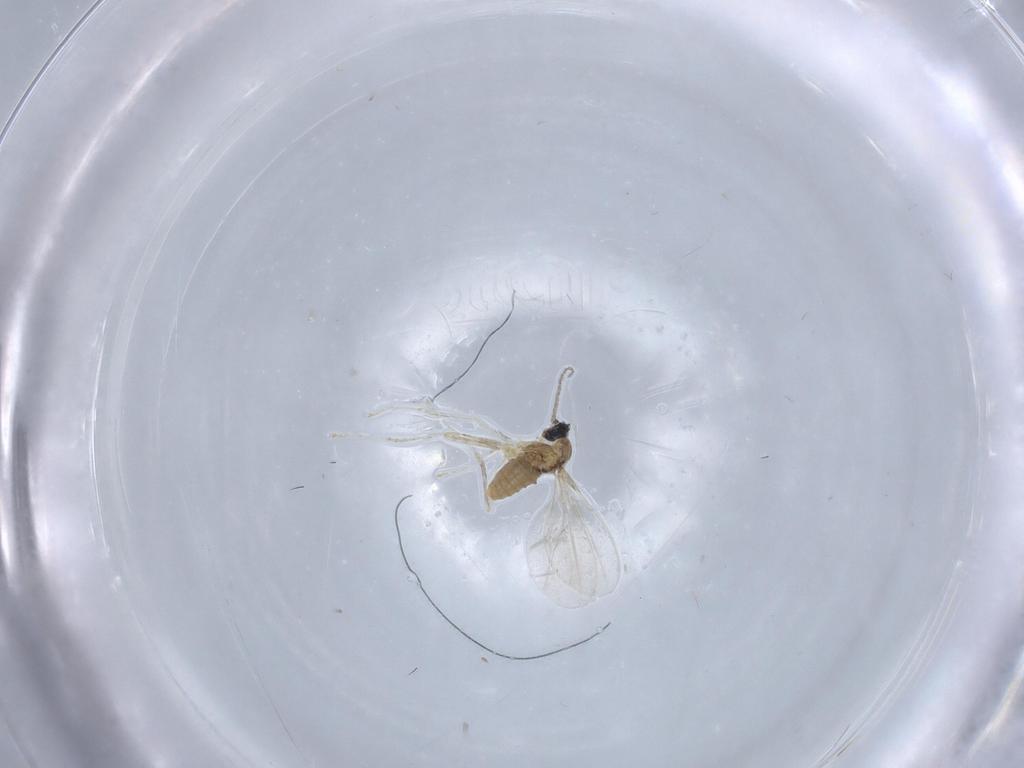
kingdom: Animalia
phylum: Arthropoda
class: Insecta
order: Diptera
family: Cecidomyiidae
